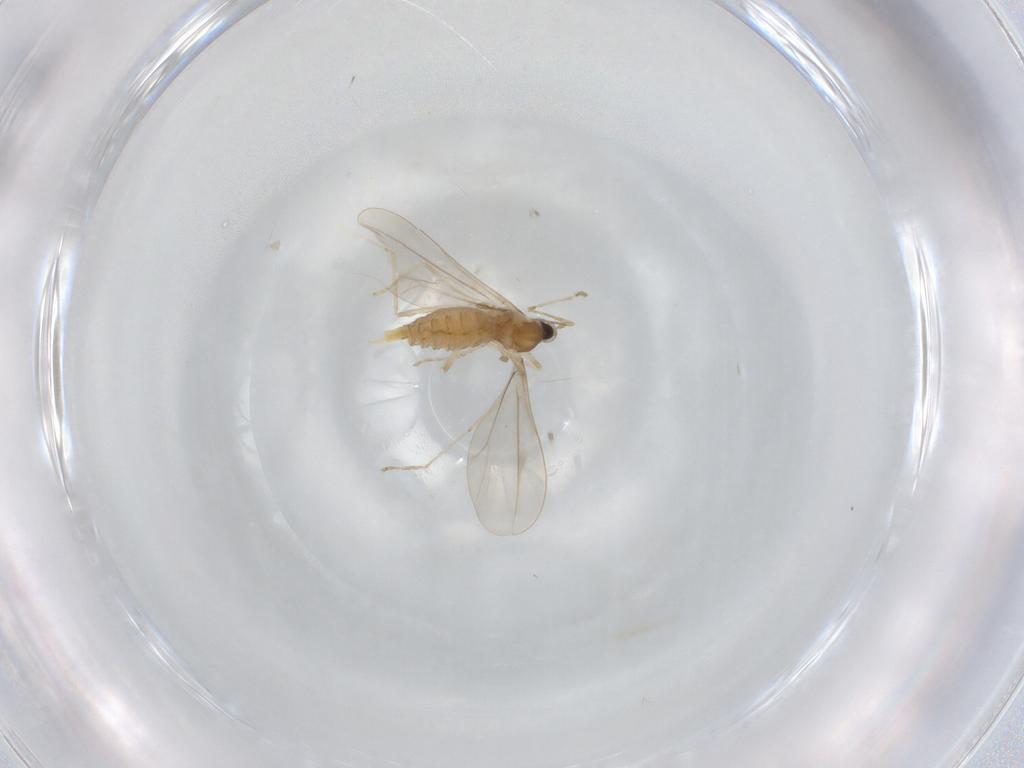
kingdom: Animalia
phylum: Arthropoda
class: Insecta
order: Diptera
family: Cecidomyiidae
